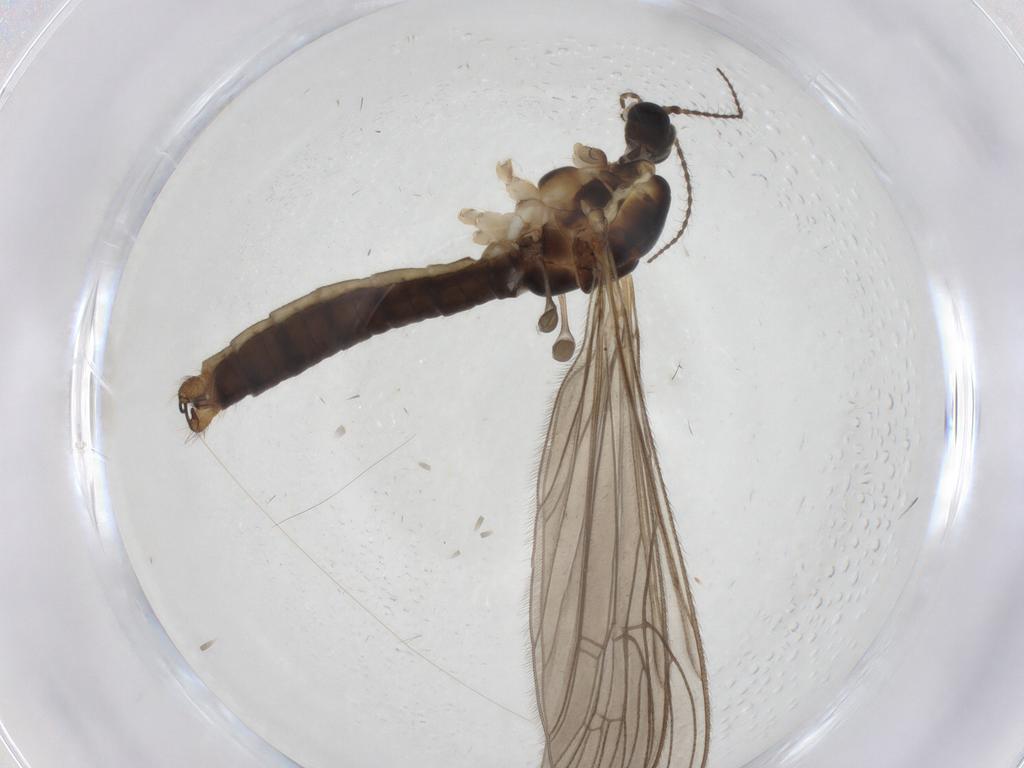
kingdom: Animalia
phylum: Arthropoda
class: Insecta
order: Diptera
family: Limoniidae
